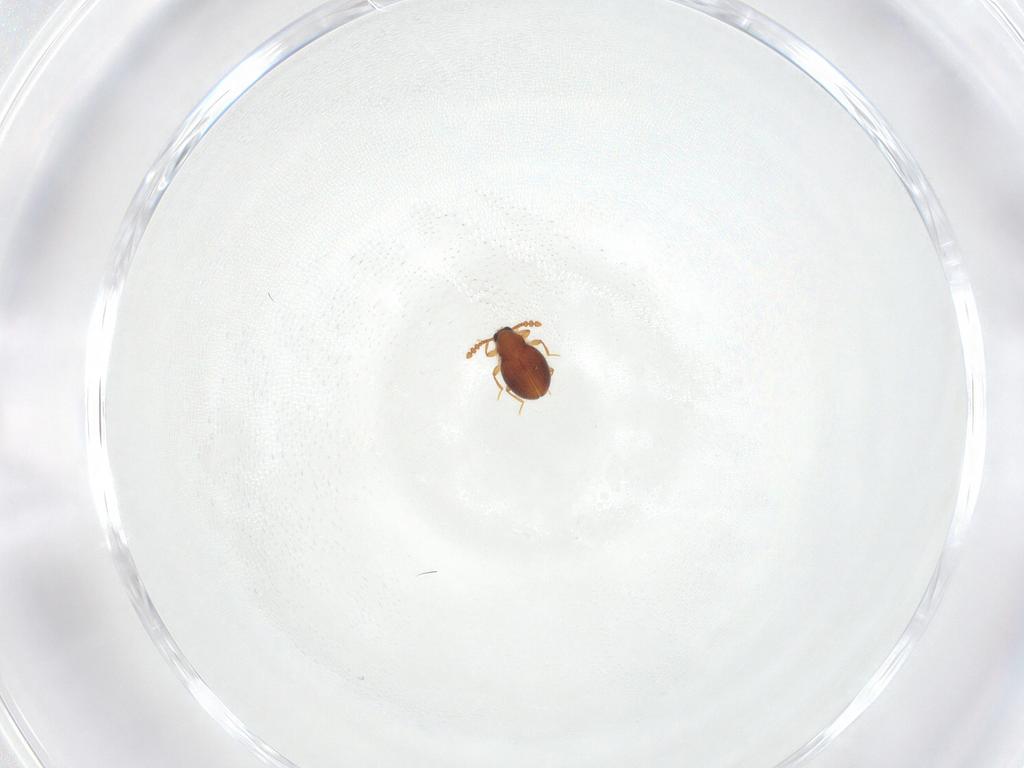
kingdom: Animalia
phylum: Arthropoda
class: Insecta
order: Coleoptera
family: Staphylinidae
